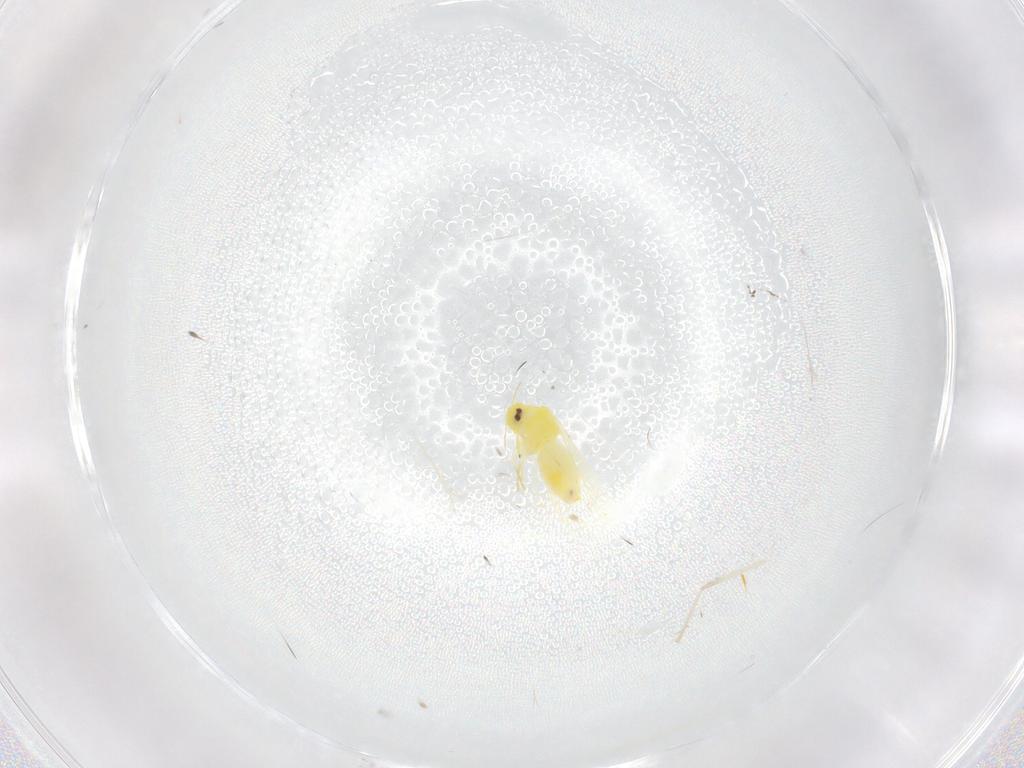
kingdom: Animalia
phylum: Arthropoda
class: Insecta
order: Hemiptera
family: Aleyrodidae
